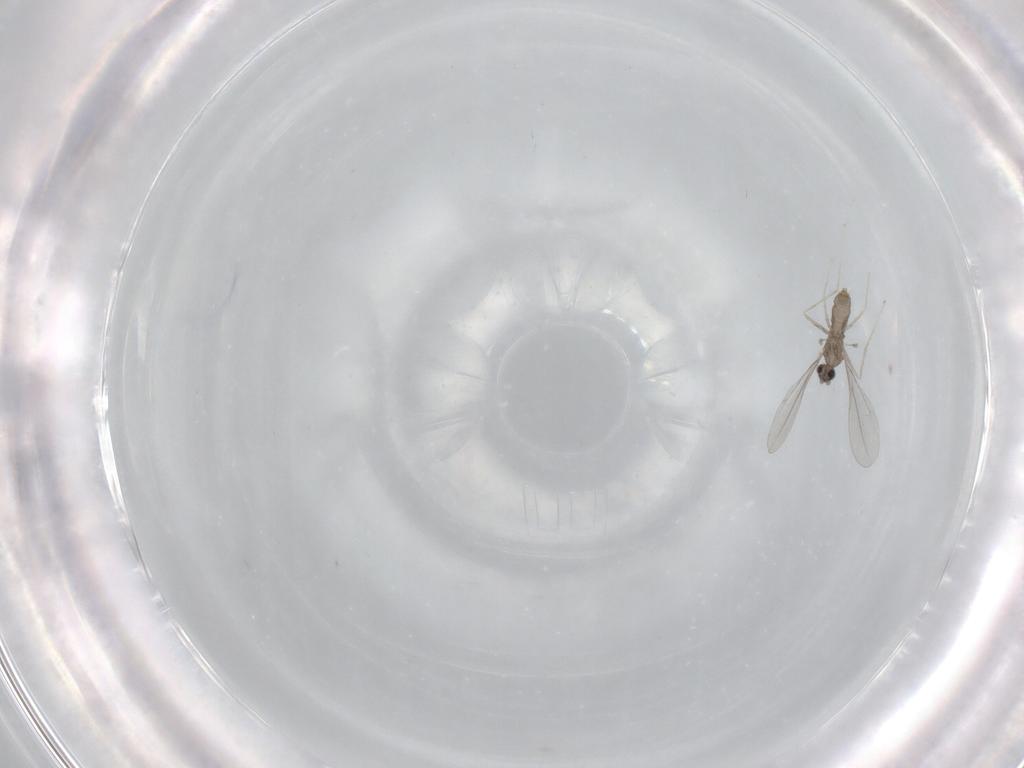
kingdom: Animalia
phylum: Arthropoda
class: Insecta
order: Diptera
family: Cecidomyiidae
